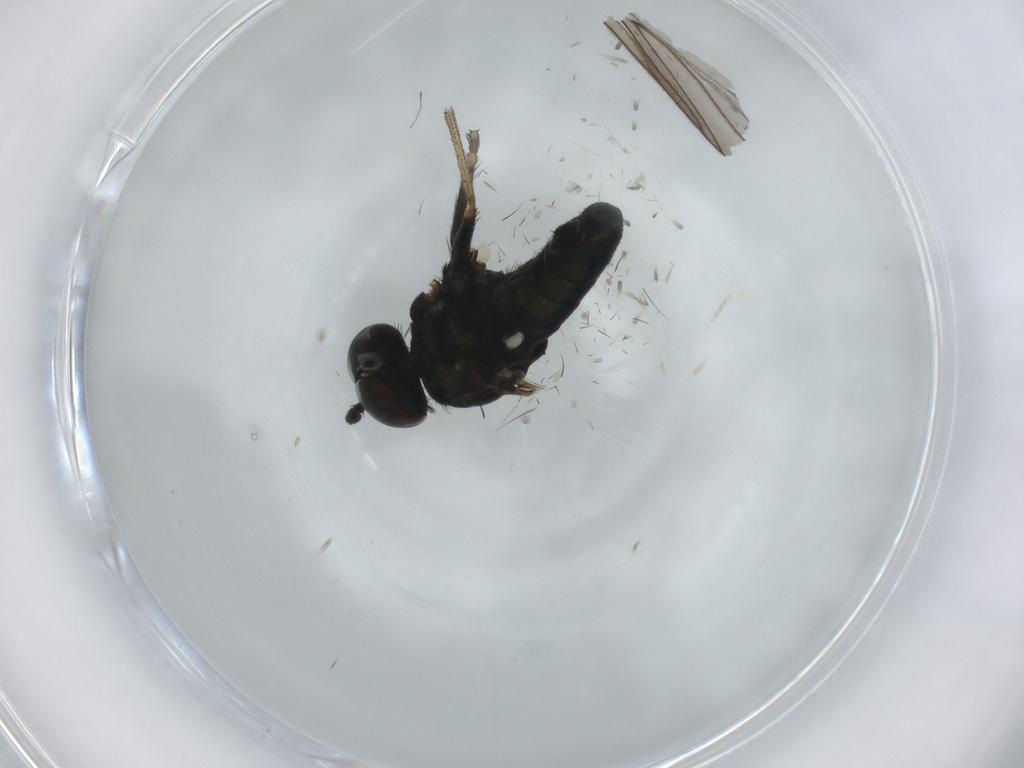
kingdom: Animalia
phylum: Arthropoda
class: Insecta
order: Diptera
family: Dolichopodidae
